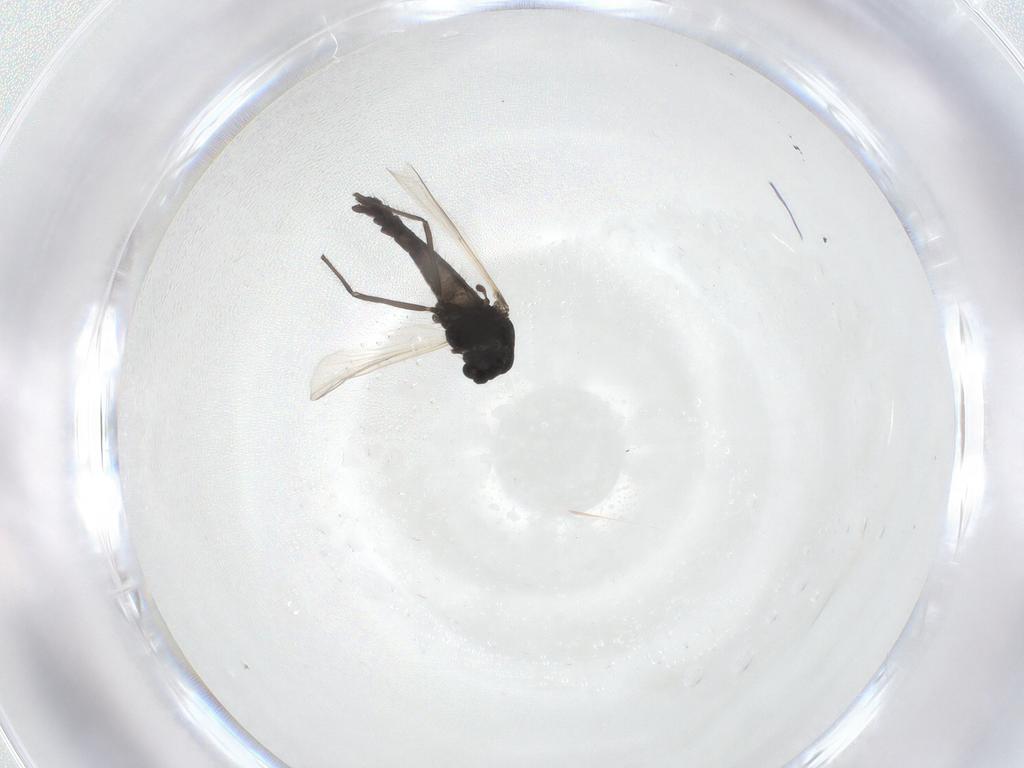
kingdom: Animalia
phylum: Arthropoda
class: Insecta
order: Diptera
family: Chironomidae
